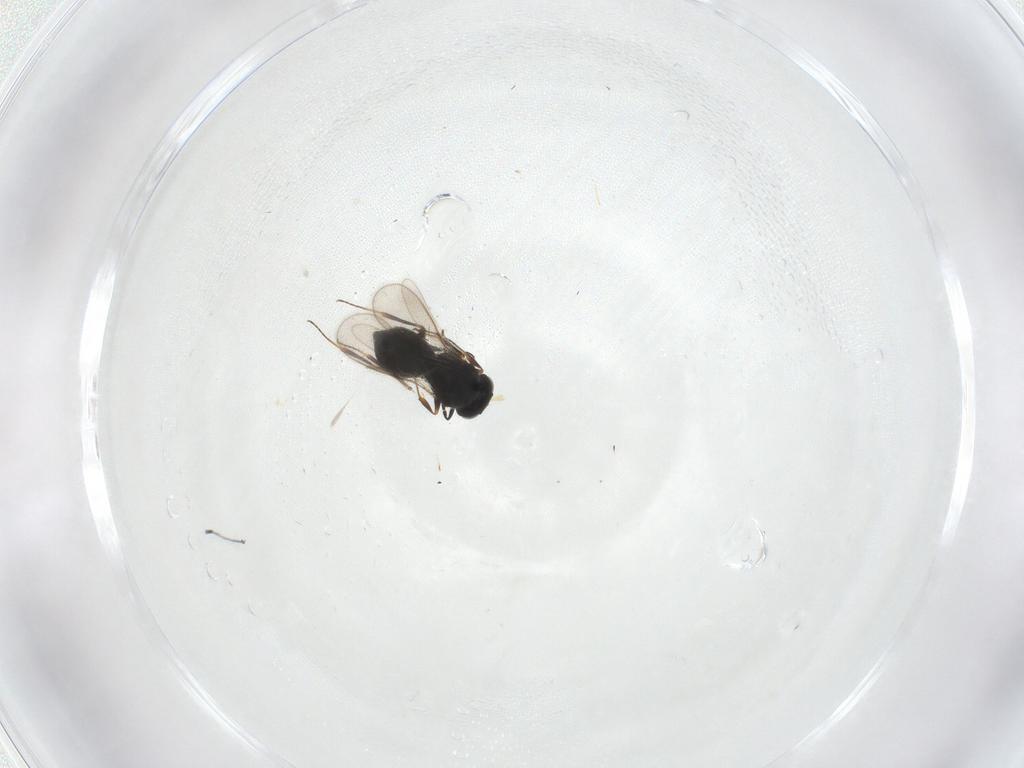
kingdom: Animalia
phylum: Arthropoda
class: Insecta
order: Hymenoptera
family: Scelionidae
